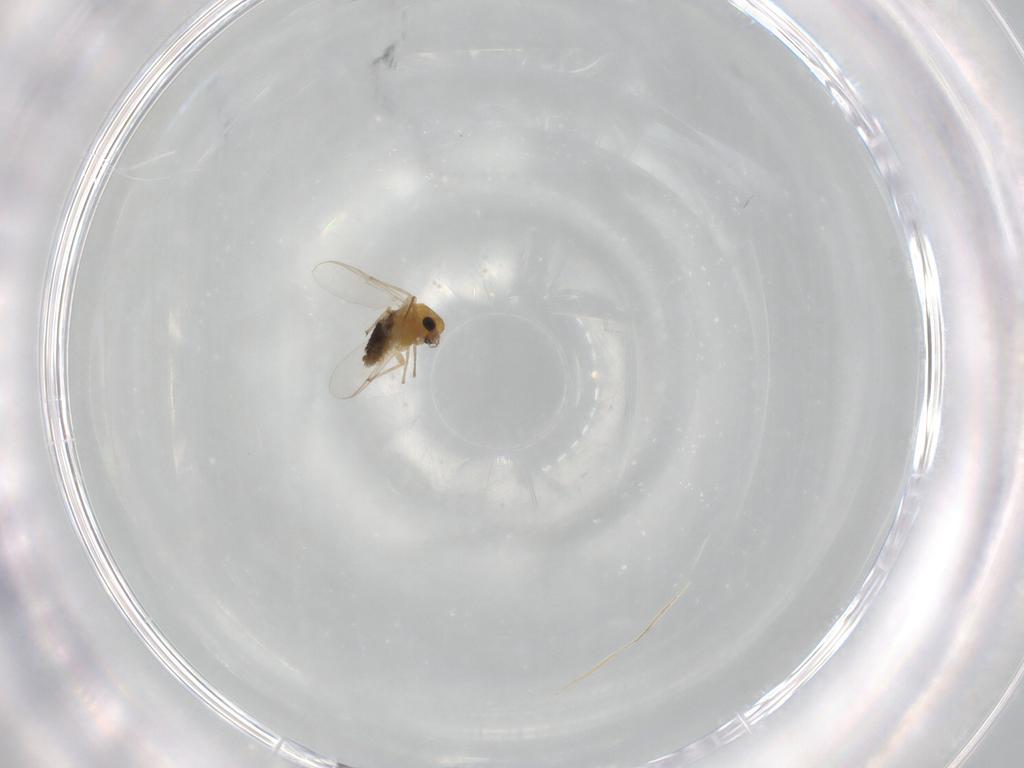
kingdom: Animalia
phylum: Arthropoda
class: Insecta
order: Diptera
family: Chironomidae
